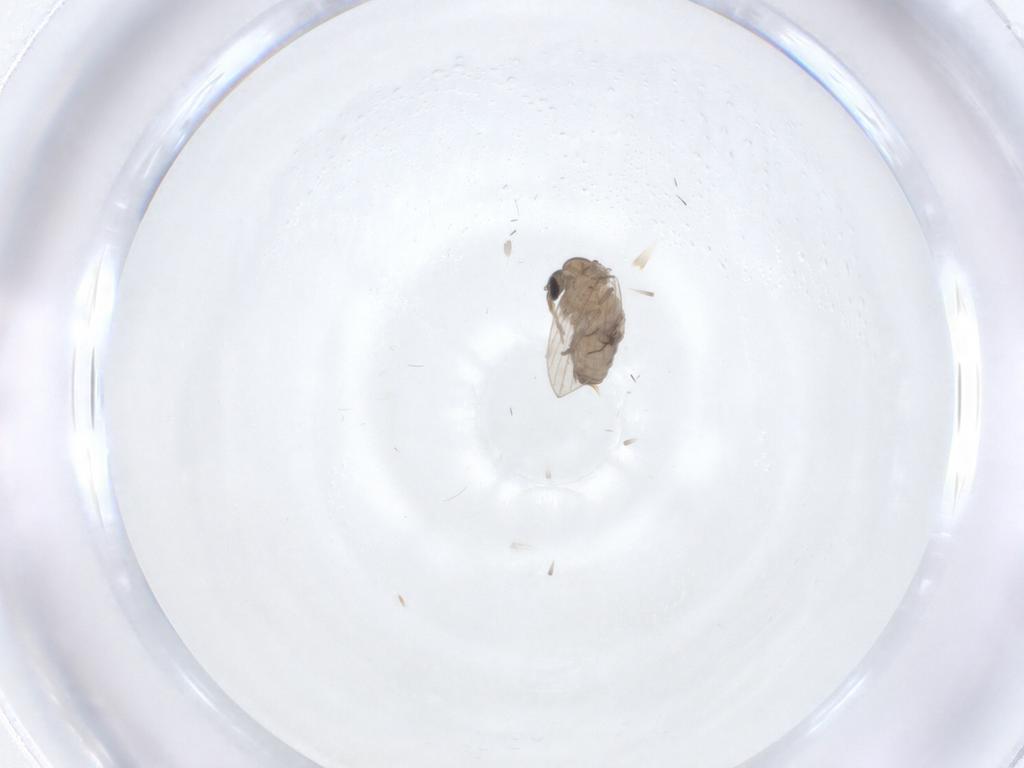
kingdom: Animalia
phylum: Arthropoda
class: Insecta
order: Diptera
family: Psychodidae
